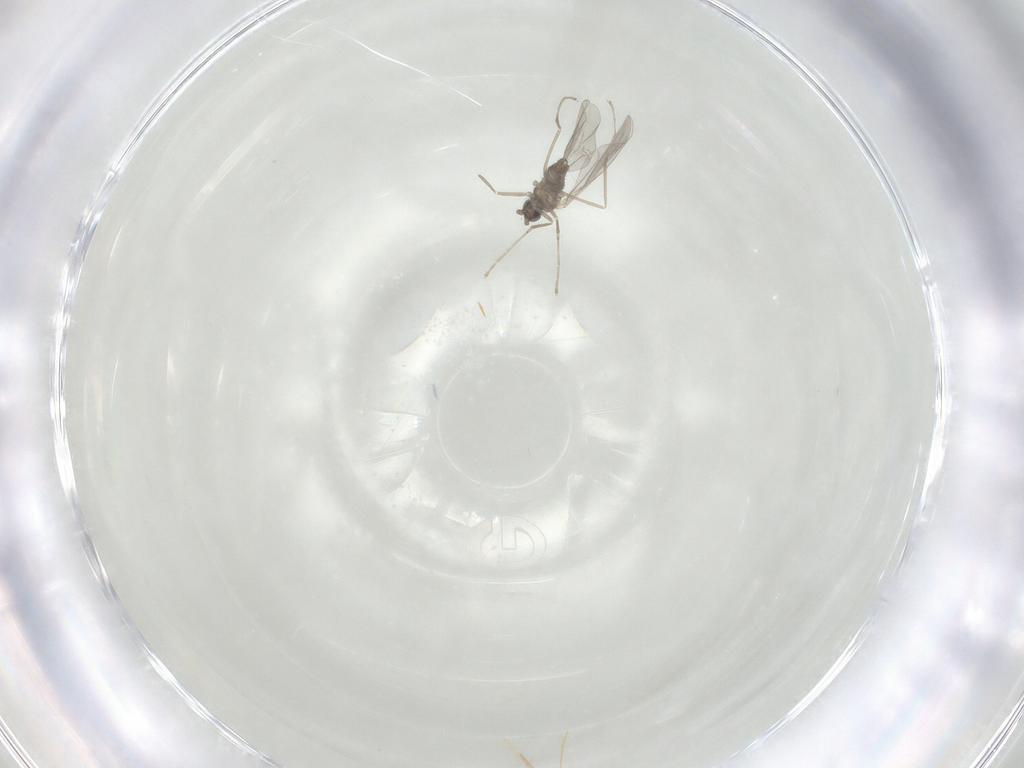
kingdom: Animalia
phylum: Arthropoda
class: Insecta
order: Diptera
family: Cecidomyiidae
